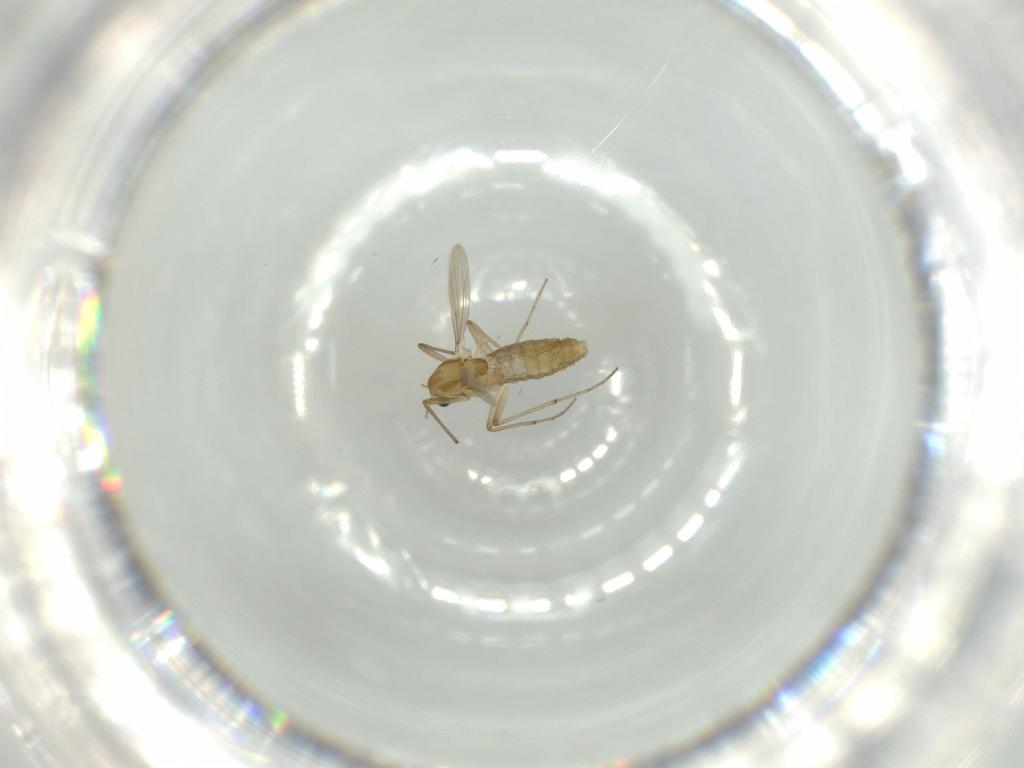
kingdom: Animalia
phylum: Arthropoda
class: Insecta
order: Diptera
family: Chironomidae
